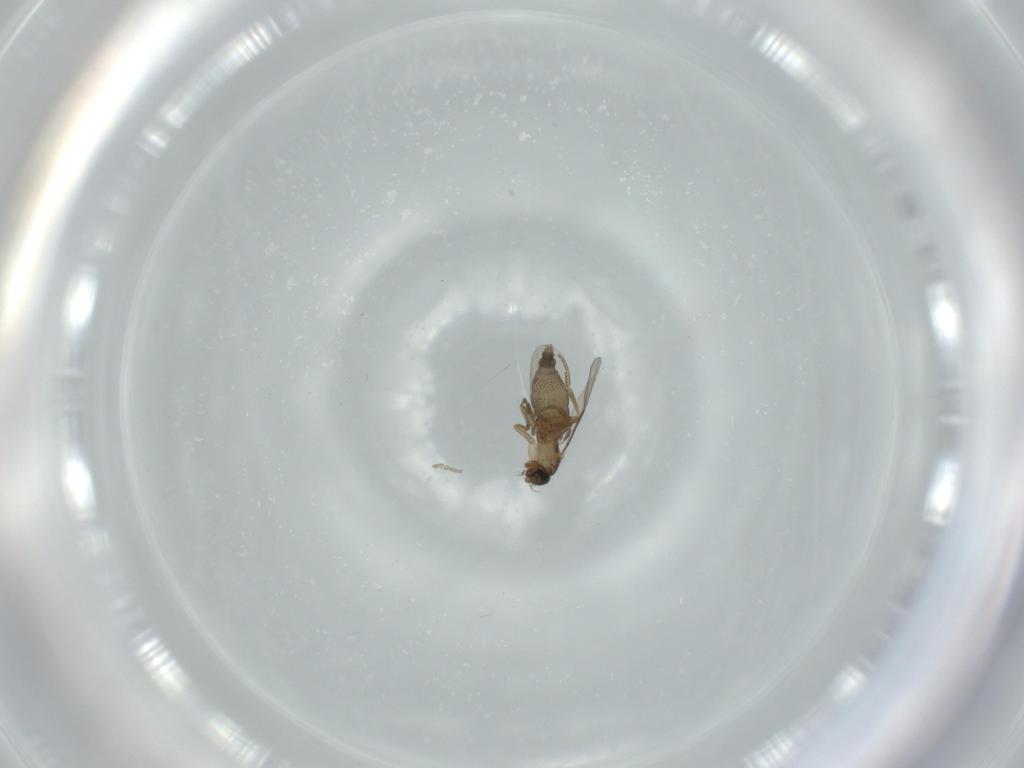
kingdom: Animalia
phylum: Arthropoda
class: Insecta
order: Diptera
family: Phoridae
